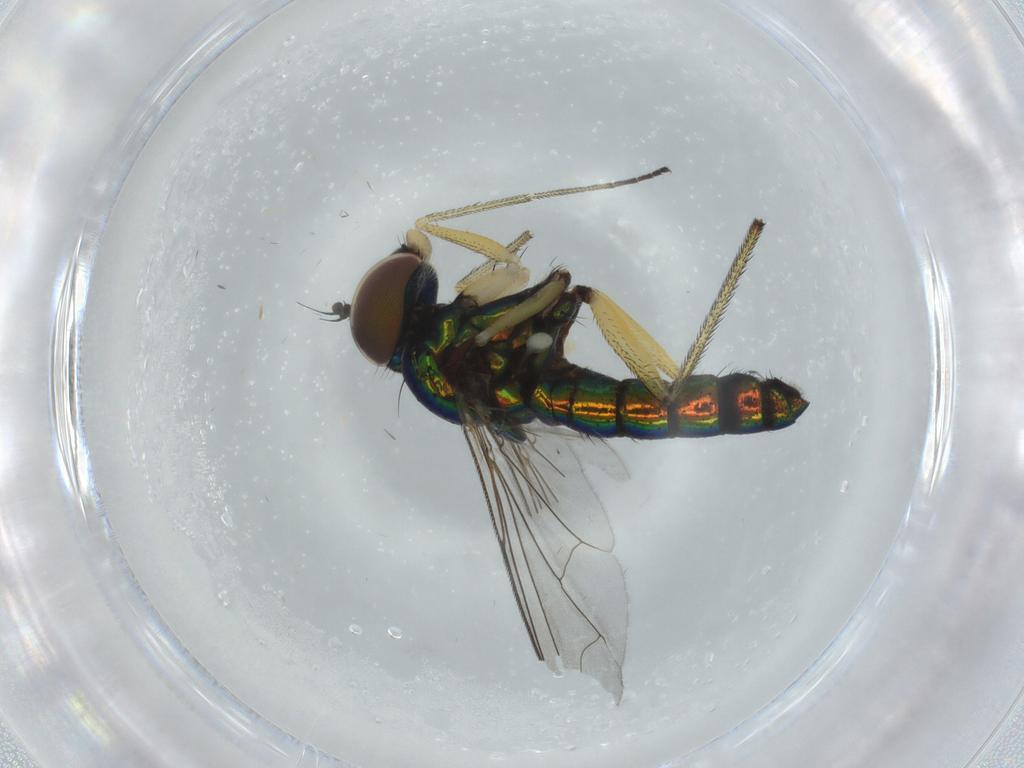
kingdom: Animalia
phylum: Arthropoda
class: Insecta
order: Diptera
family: Dolichopodidae
